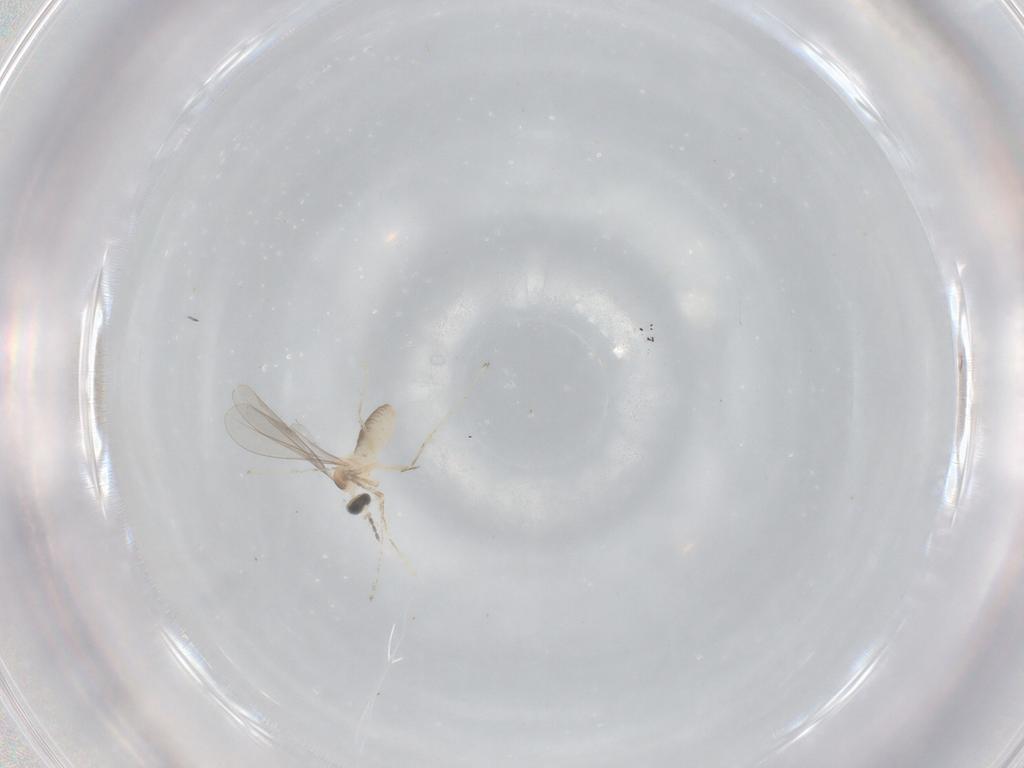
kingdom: Animalia
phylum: Arthropoda
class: Insecta
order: Diptera
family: Cecidomyiidae
